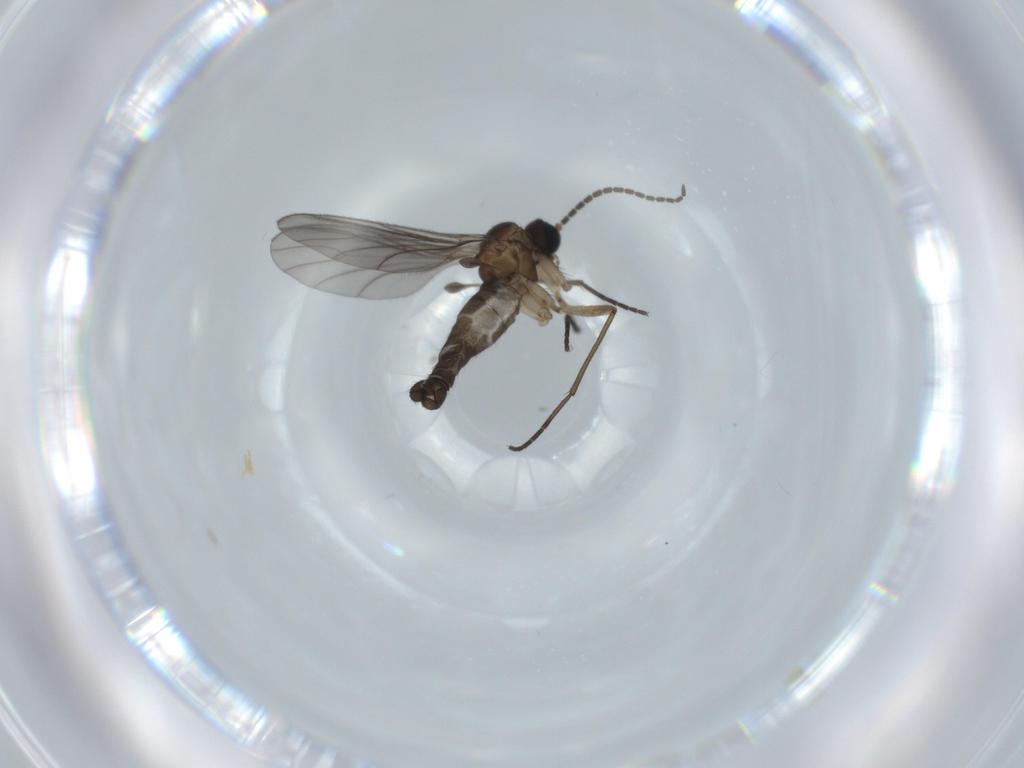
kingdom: Animalia
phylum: Arthropoda
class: Insecta
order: Diptera
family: Sciaridae
